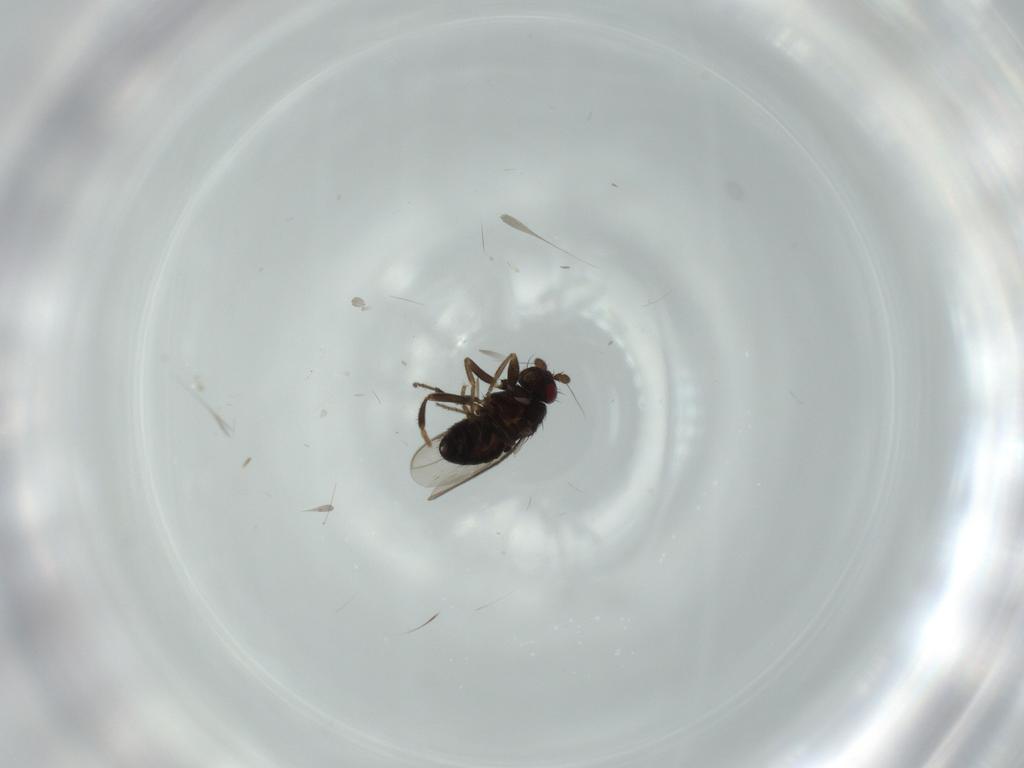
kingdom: Animalia
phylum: Arthropoda
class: Insecta
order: Diptera
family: Sphaeroceridae
